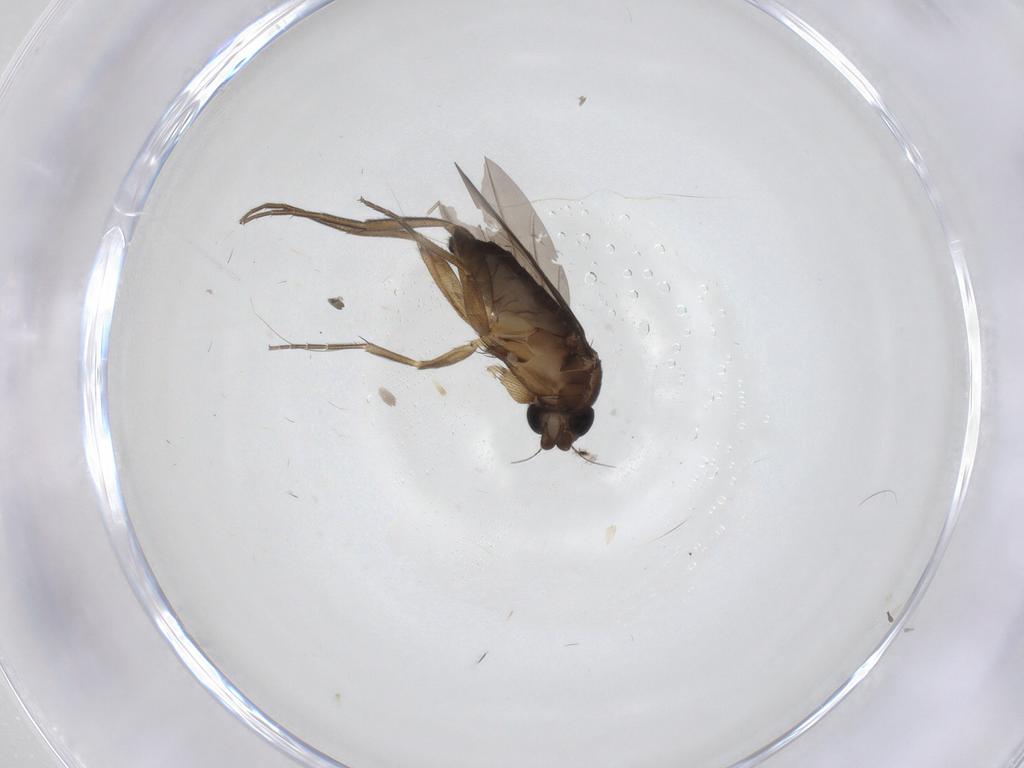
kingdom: Animalia
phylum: Arthropoda
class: Insecta
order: Diptera
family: Phoridae
